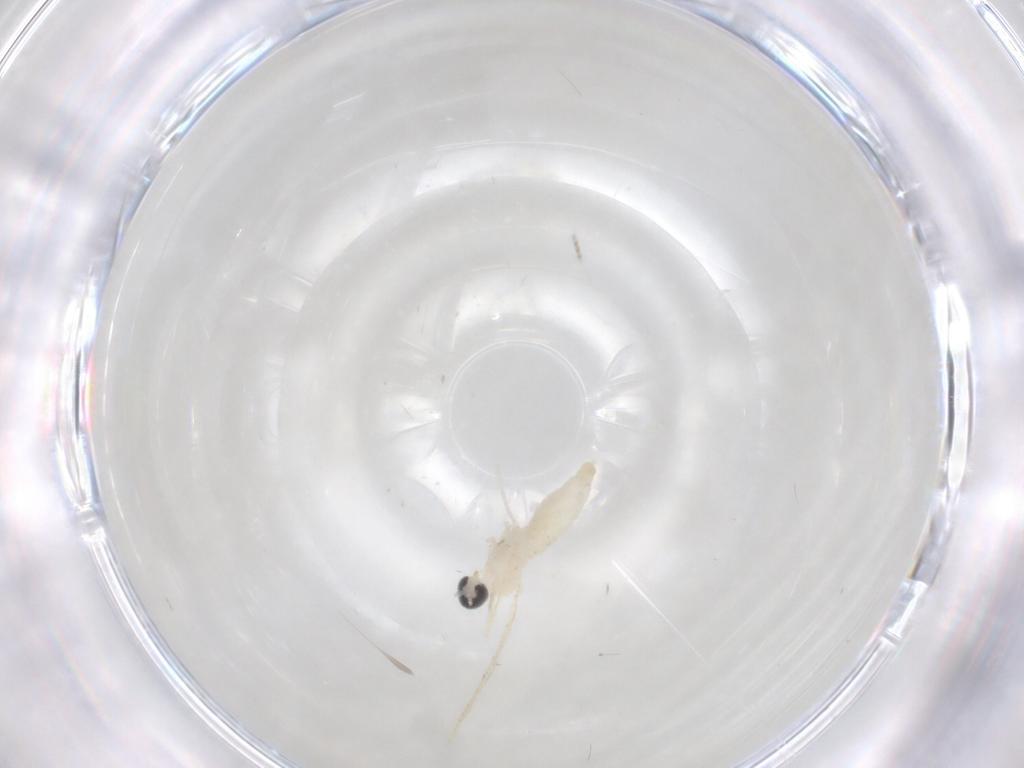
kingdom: Animalia
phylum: Arthropoda
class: Insecta
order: Diptera
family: Cecidomyiidae
